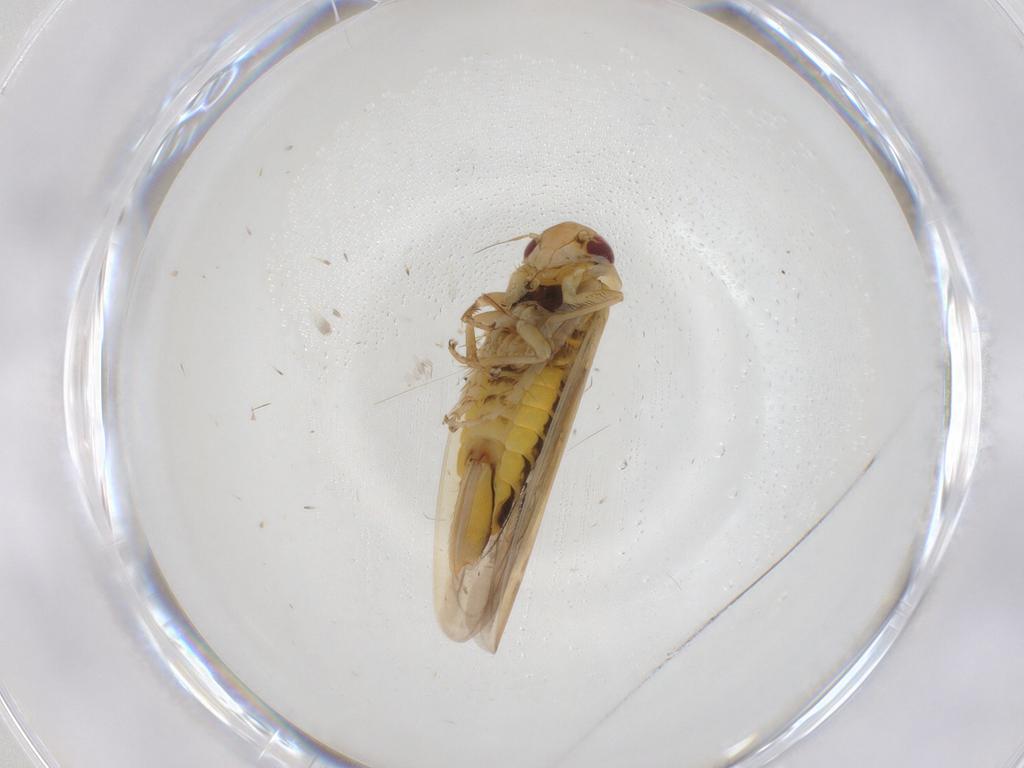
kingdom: Animalia
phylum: Arthropoda
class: Insecta
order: Hemiptera
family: Cicadellidae
